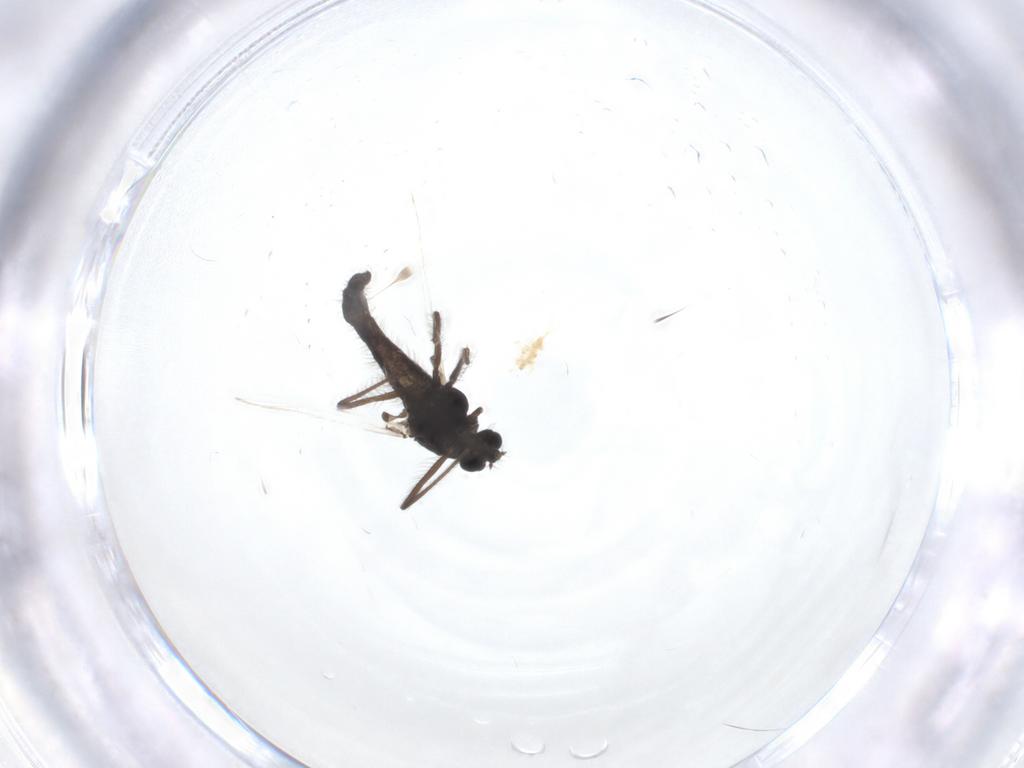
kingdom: Animalia
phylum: Arthropoda
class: Insecta
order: Diptera
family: Chironomidae
